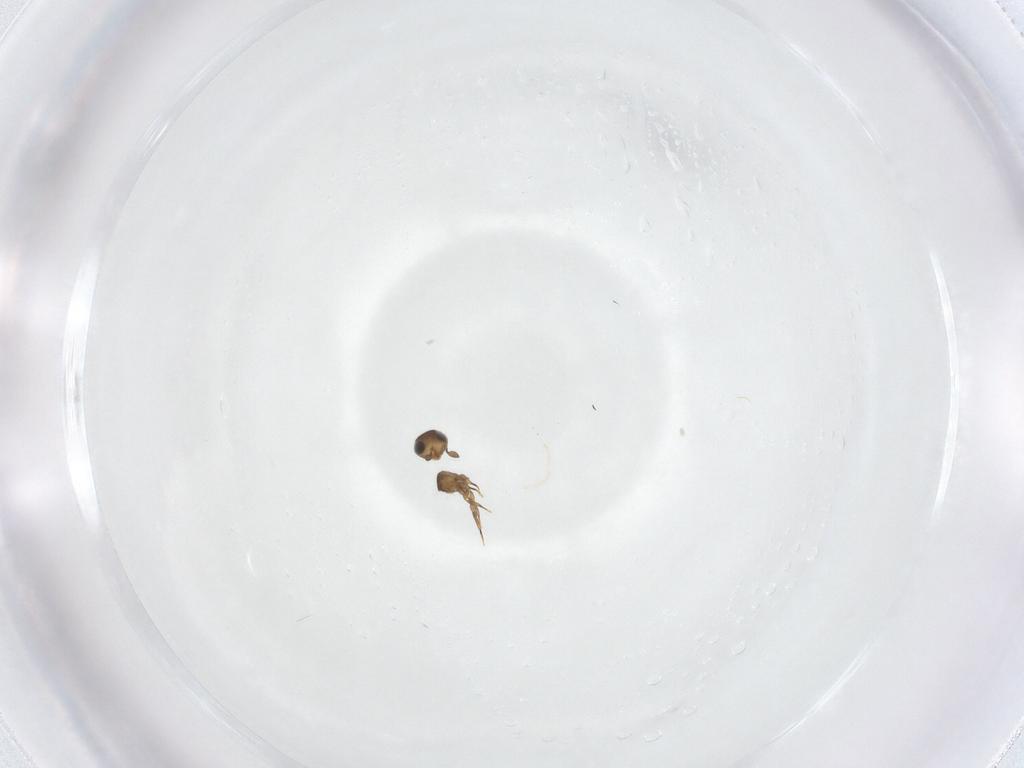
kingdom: Animalia
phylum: Arthropoda
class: Insecta
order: Hymenoptera
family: Scelionidae
